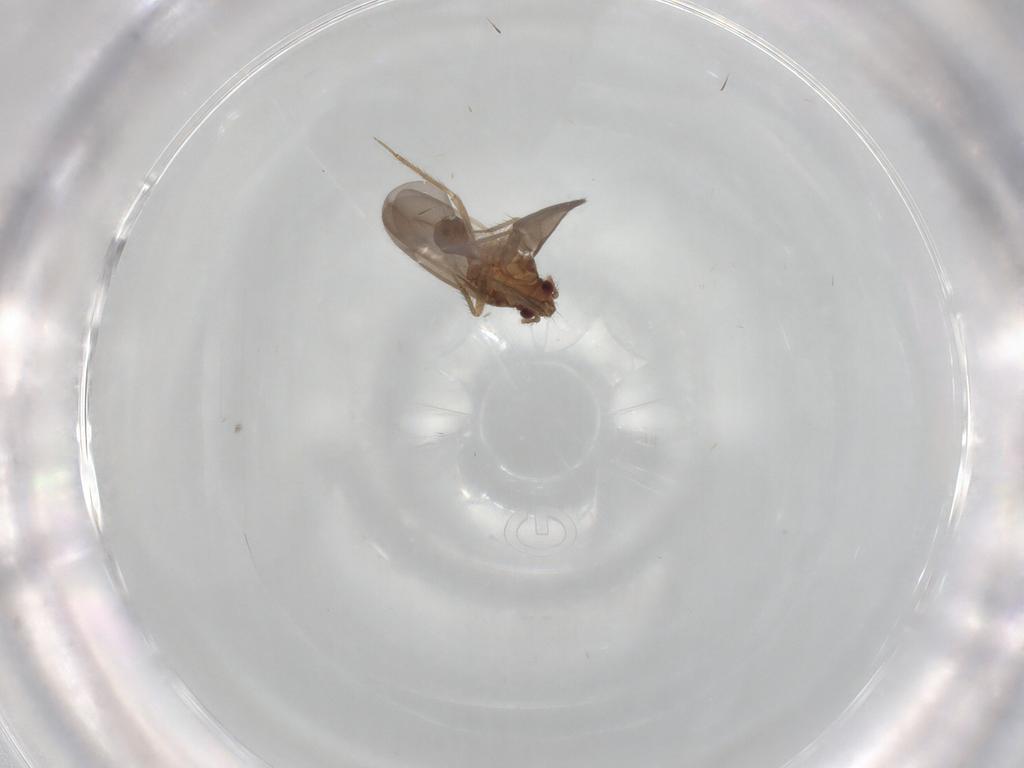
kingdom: Animalia
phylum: Arthropoda
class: Insecta
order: Hemiptera
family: Ceratocombidae
